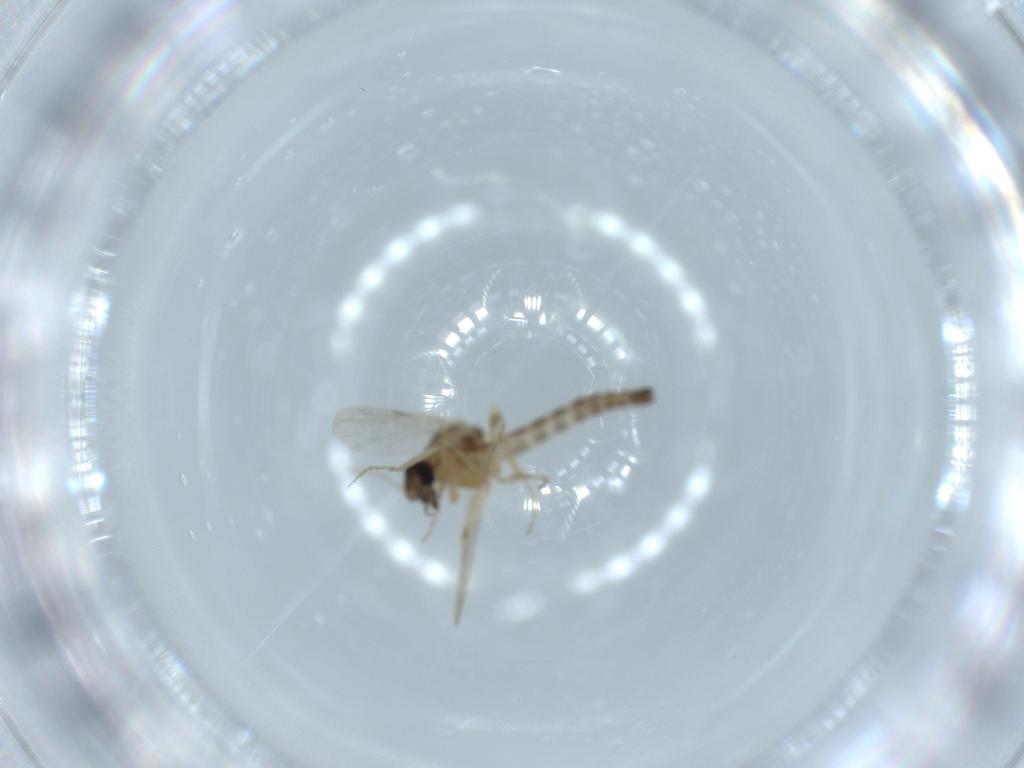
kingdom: Animalia
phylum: Arthropoda
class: Insecta
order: Diptera
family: Ceratopogonidae
